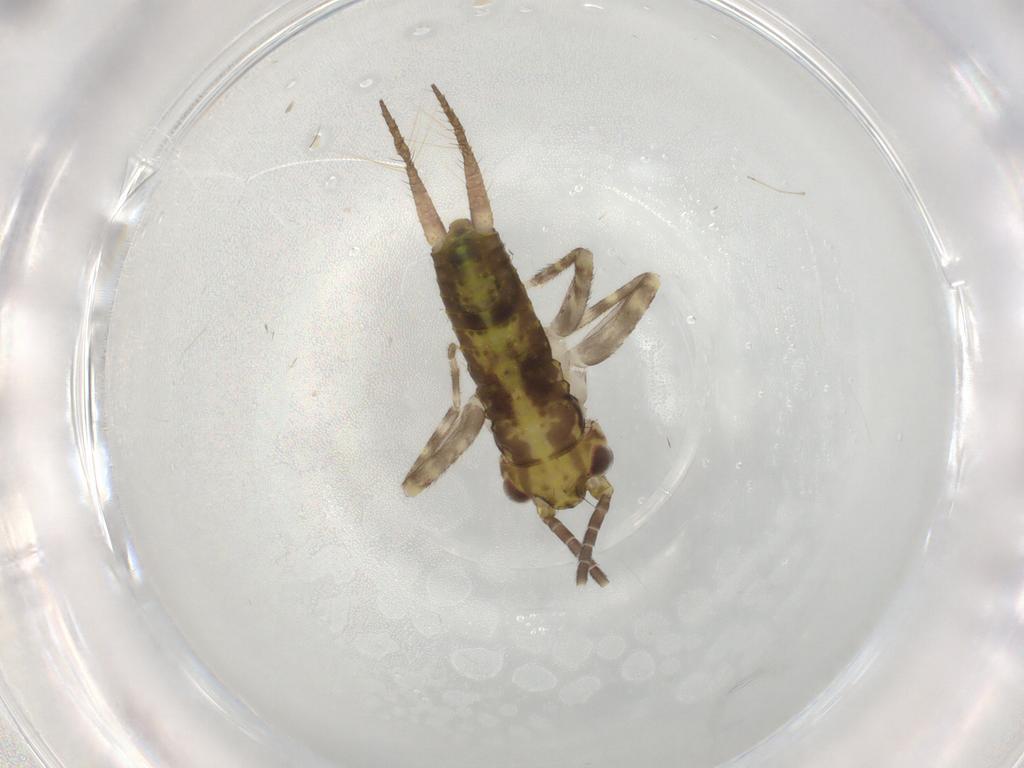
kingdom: Animalia
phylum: Arthropoda
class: Insecta
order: Orthoptera
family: Gryllidae
